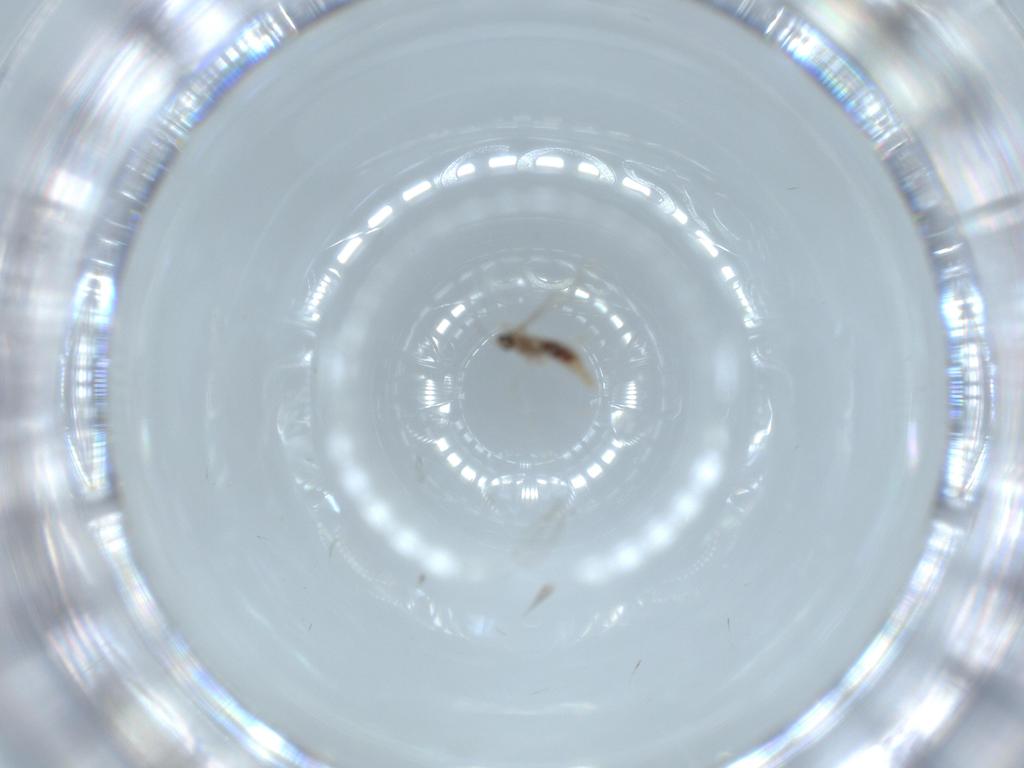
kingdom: Animalia
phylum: Arthropoda
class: Insecta
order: Diptera
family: Cecidomyiidae
